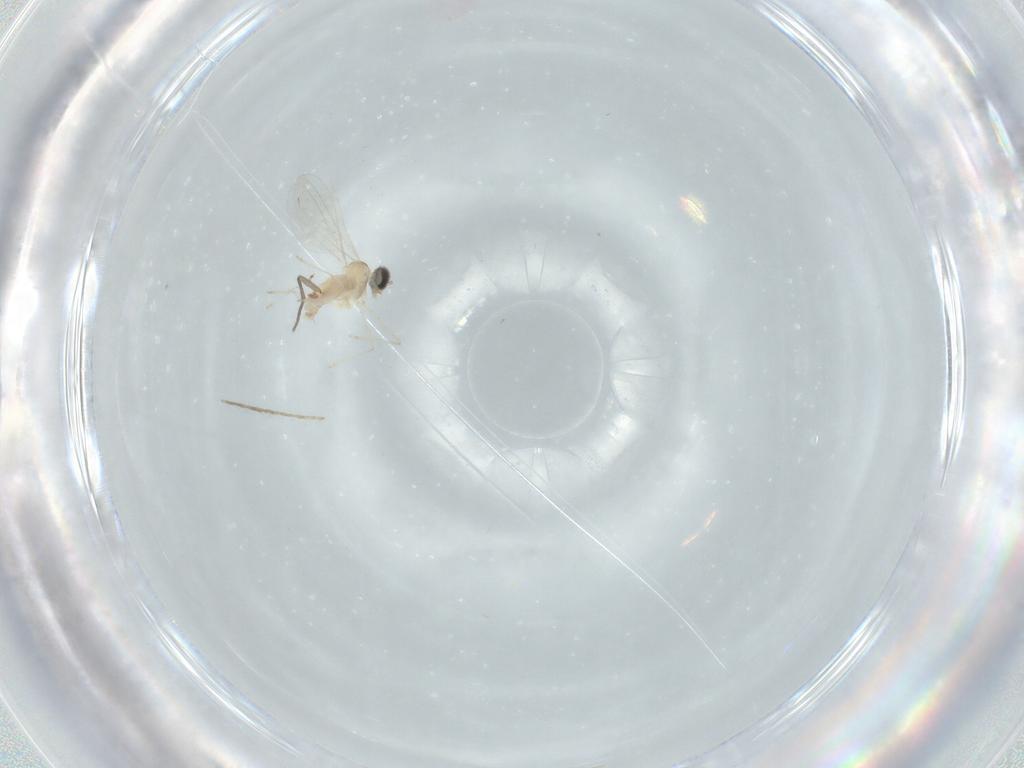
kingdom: Animalia
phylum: Arthropoda
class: Insecta
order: Diptera
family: Cecidomyiidae
